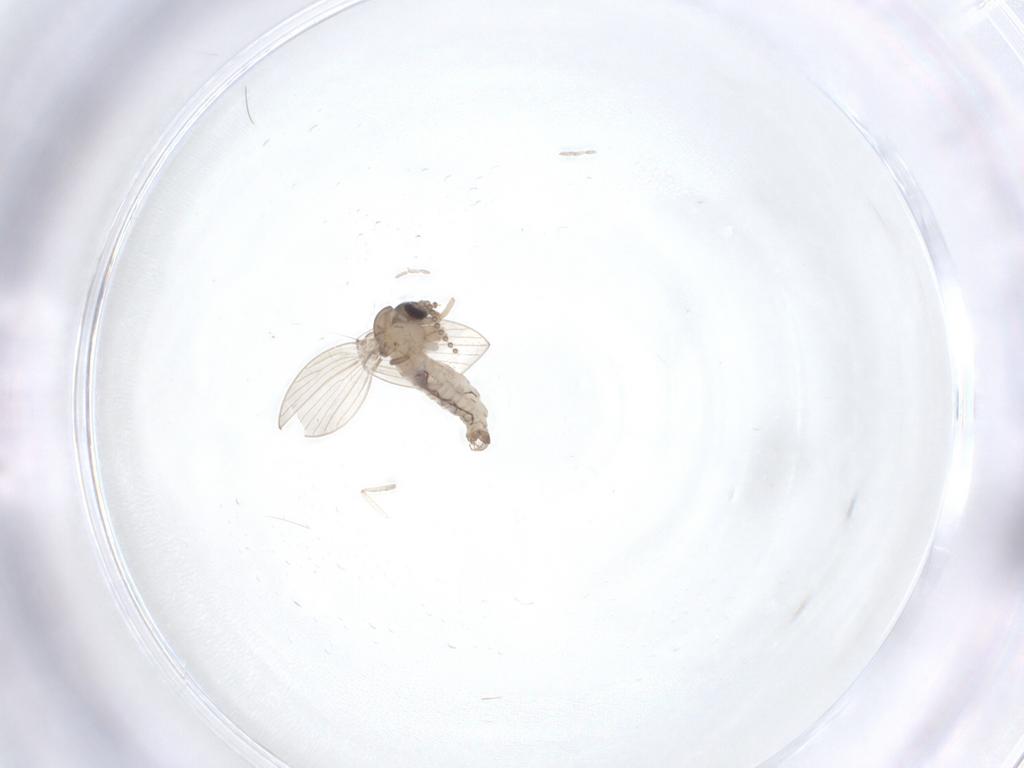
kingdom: Animalia
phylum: Arthropoda
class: Insecta
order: Diptera
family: Psychodidae
